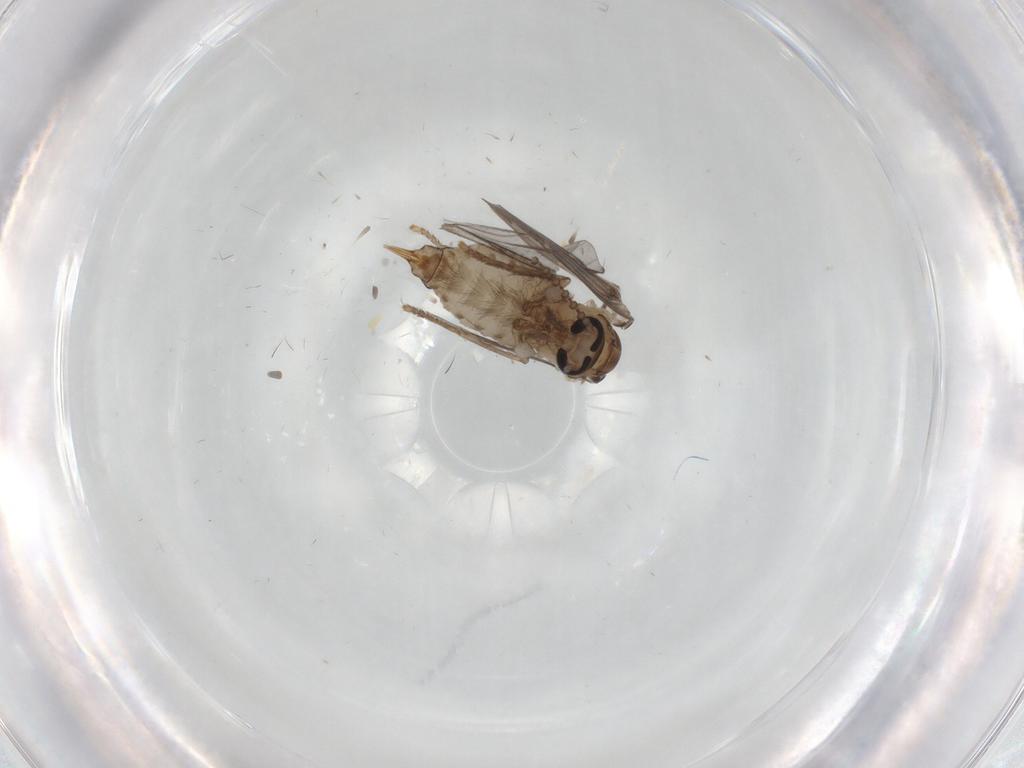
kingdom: Animalia
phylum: Arthropoda
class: Insecta
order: Diptera
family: Psychodidae
